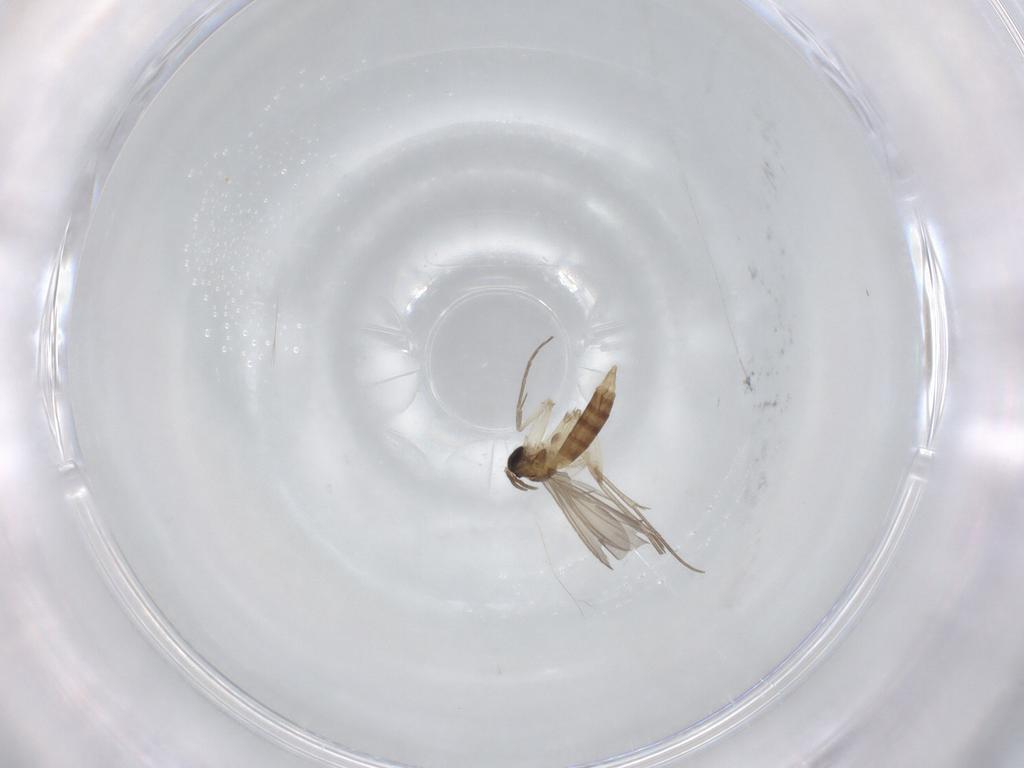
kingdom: Animalia
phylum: Arthropoda
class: Insecta
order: Diptera
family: Mycetophilidae
